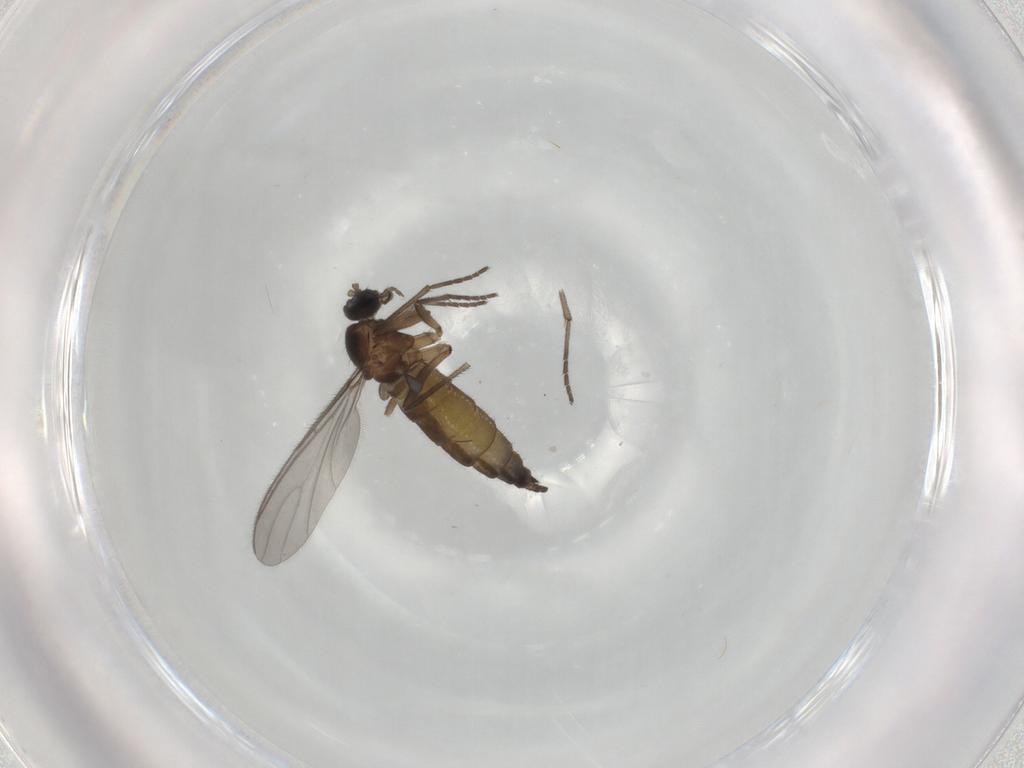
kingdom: Animalia
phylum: Arthropoda
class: Insecta
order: Diptera
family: Sciaridae
